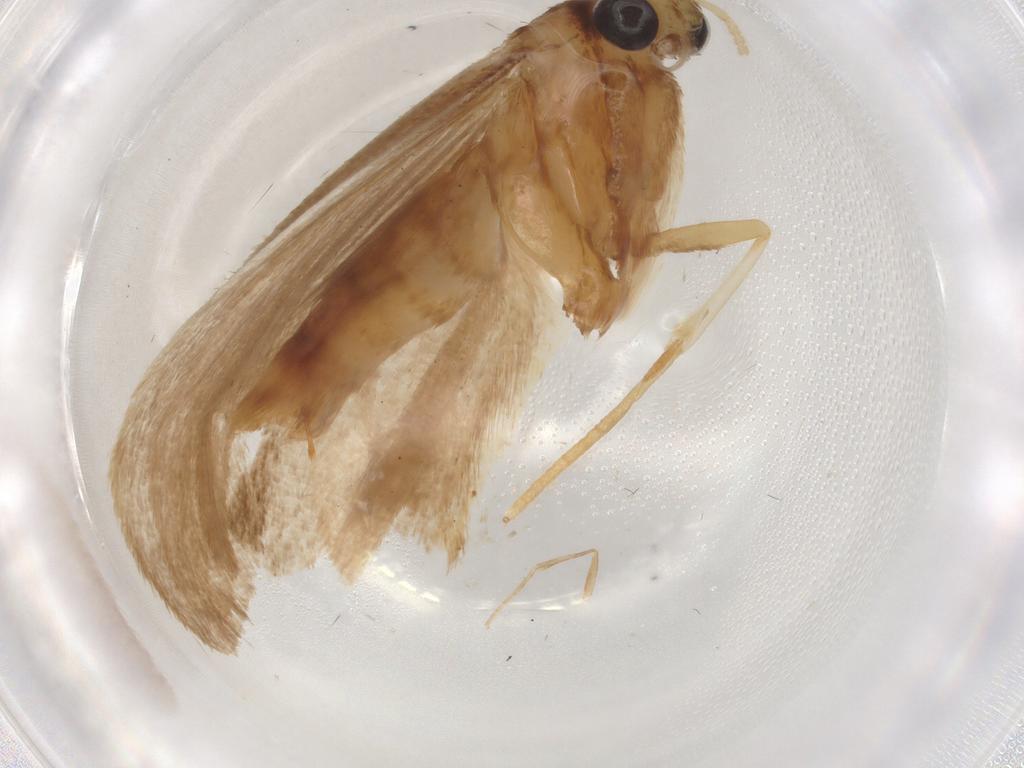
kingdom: Animalia
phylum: Arthropoda
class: Insecta
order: Lepidoptera
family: Lecithoceridae
